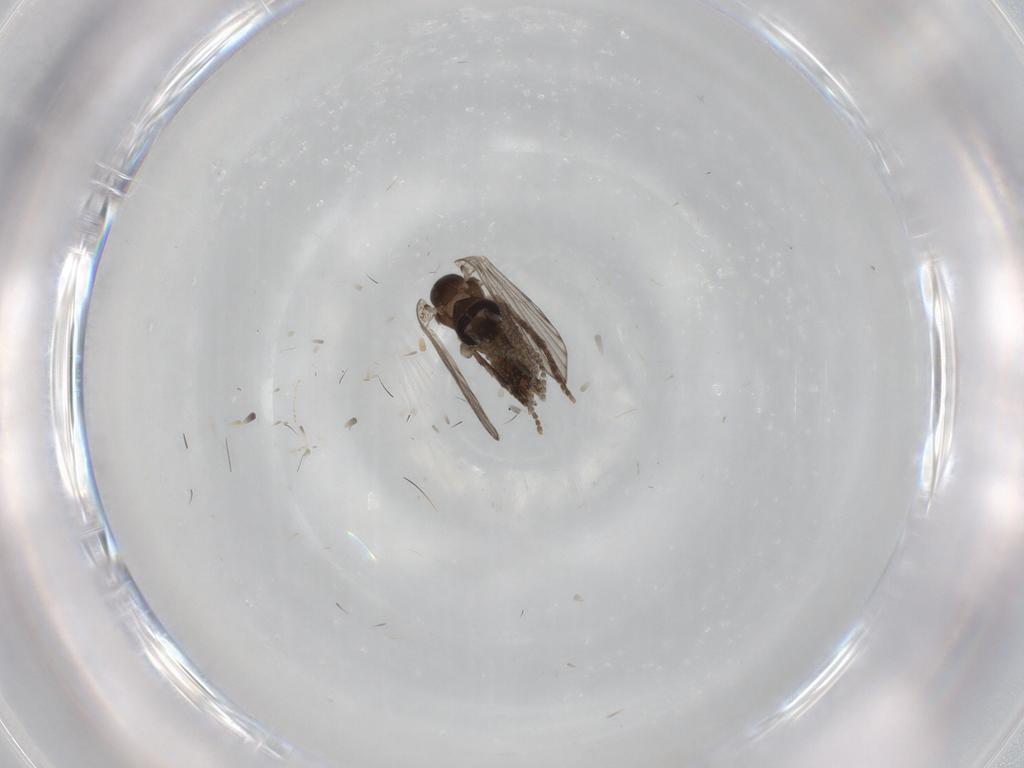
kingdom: Animalia
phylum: Arthropoda
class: Insecta
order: Diptera
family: Psychodidae
